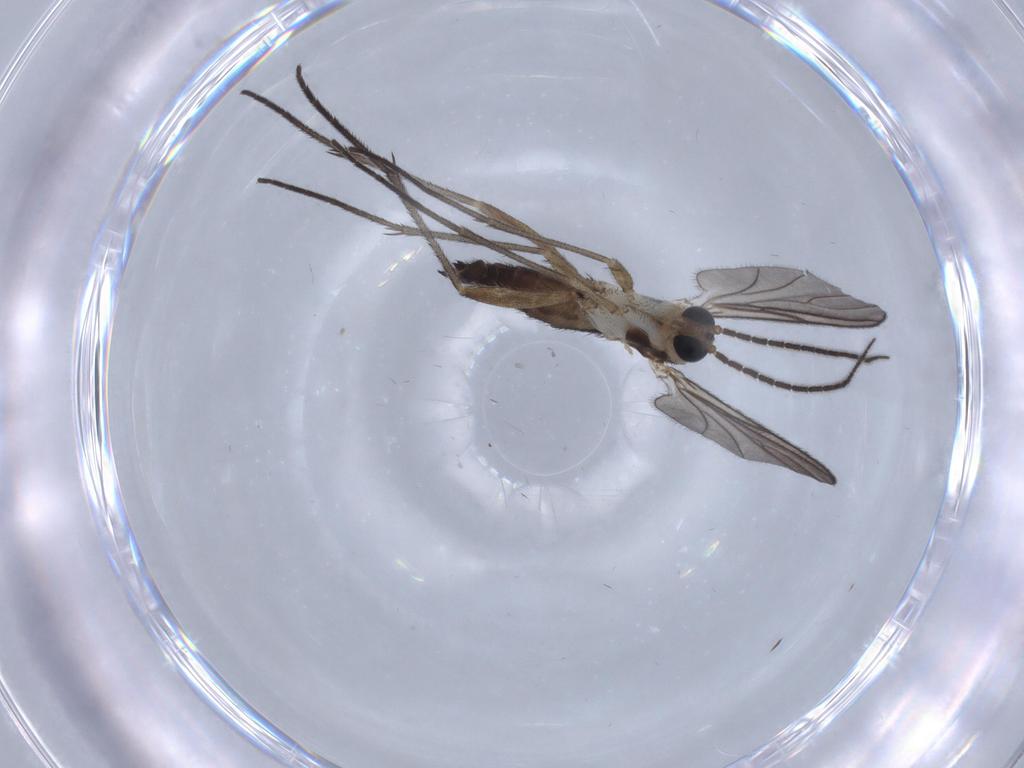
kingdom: Animalia
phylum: Arthropoda
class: Insecta
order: Diptera
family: Sciaridae
